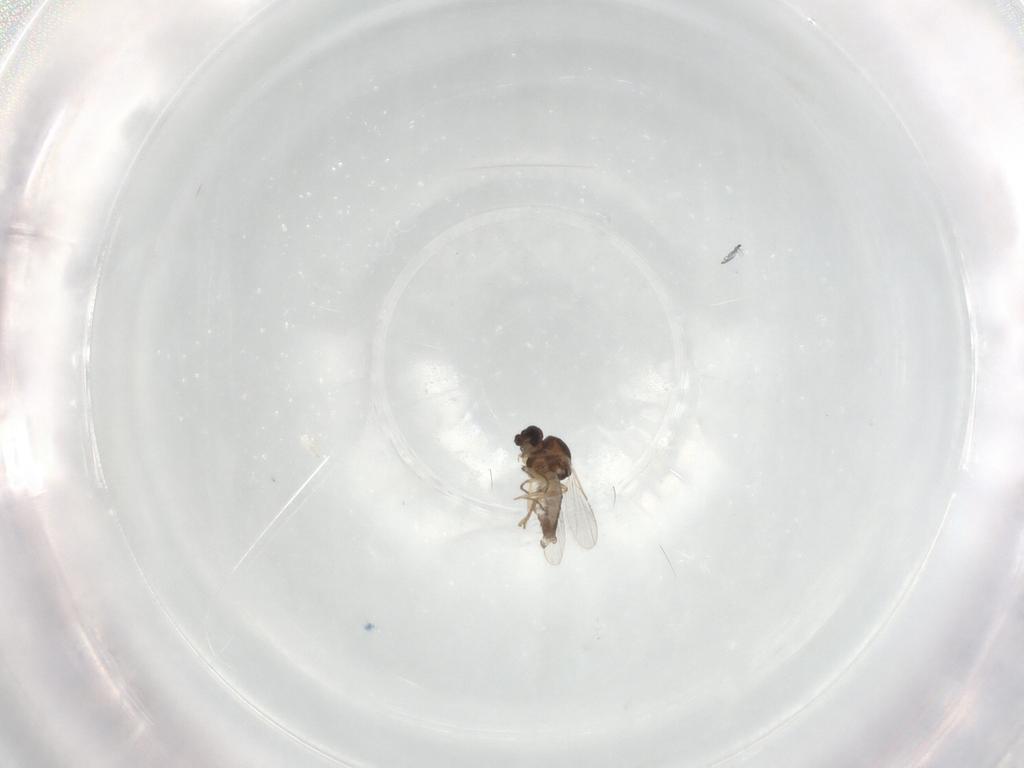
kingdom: Animalia
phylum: Arthropoda
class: Insecta
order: Diptera
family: Ceratopogonidae
